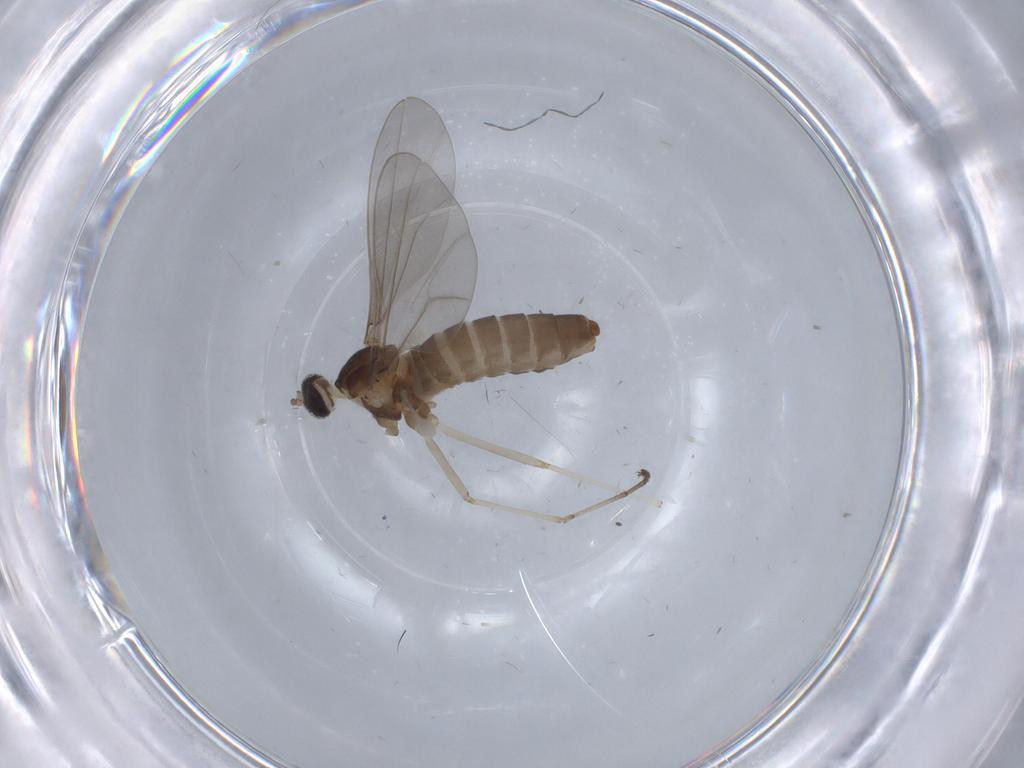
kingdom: Animalia
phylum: Arthropoda
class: Insecta
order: Diptera
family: Cecidomyiidae
